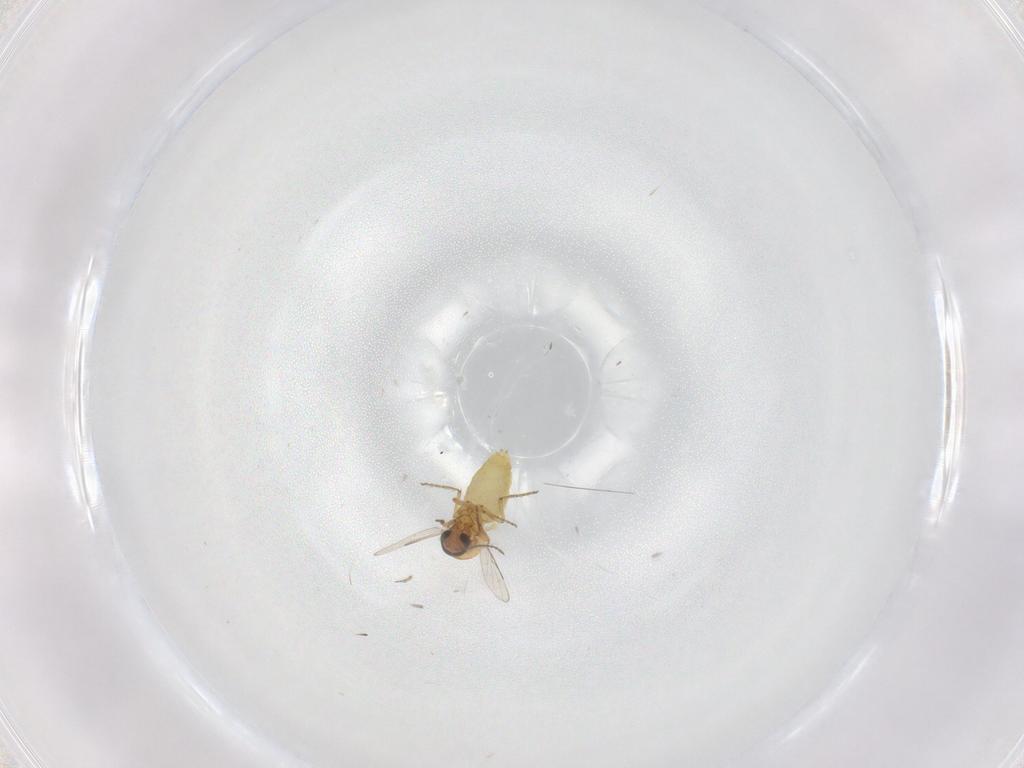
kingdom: Animalia
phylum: Arthropoda
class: Insecta
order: Diptera
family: Ceratopogonidae
